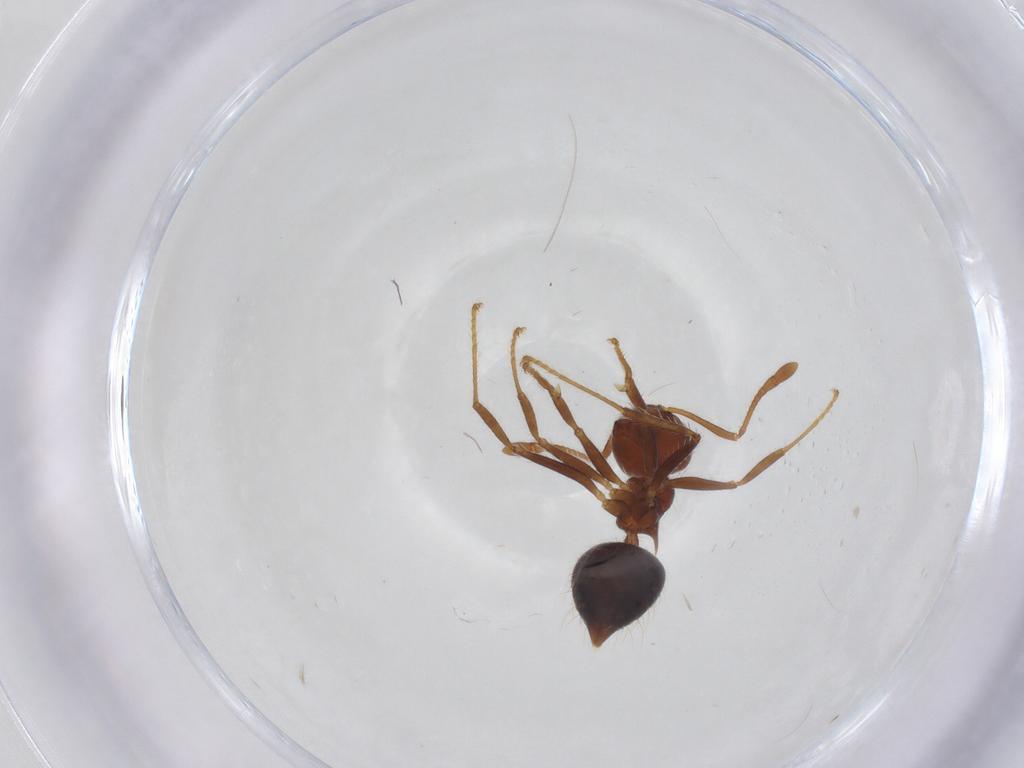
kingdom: Animalia
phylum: Arthropoda
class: Insecta
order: Hymenoptera
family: Formicidae
